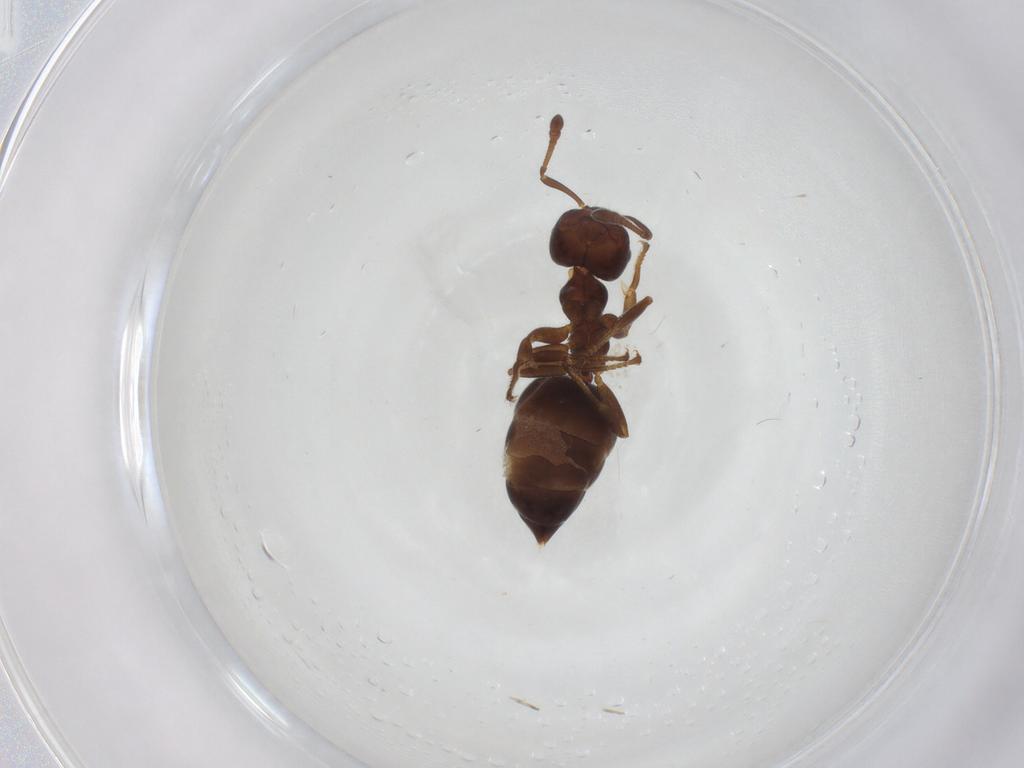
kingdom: Animalia
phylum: Arthropoda
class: Insecta
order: Hymenoptera
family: Formicidae
